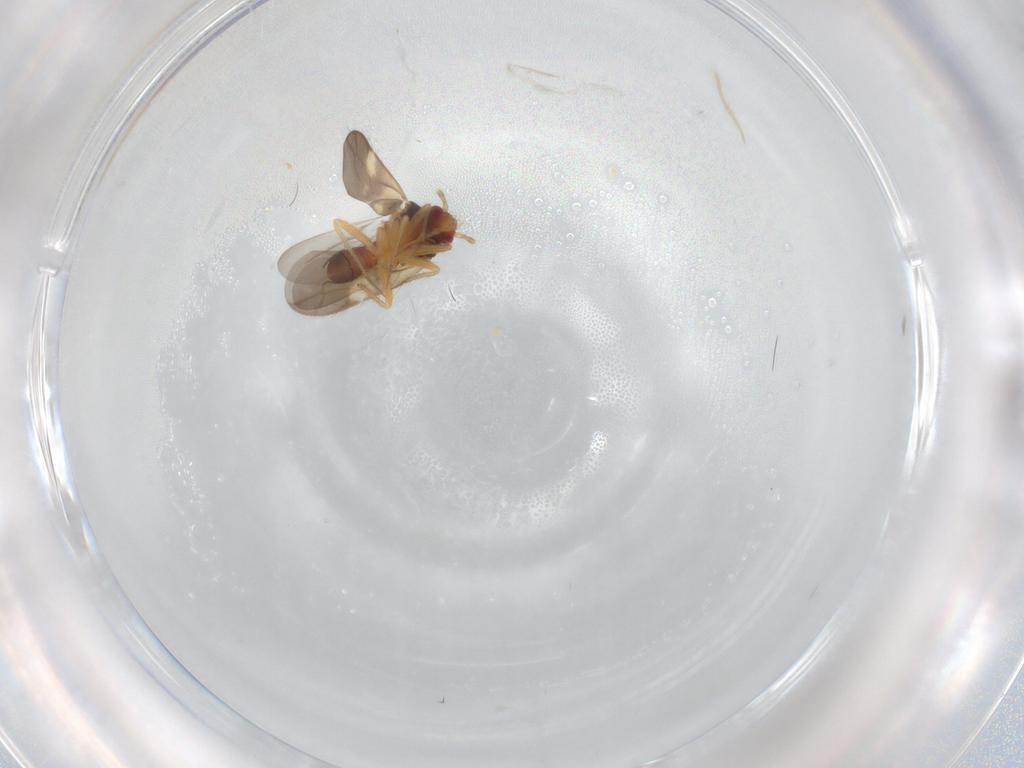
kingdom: Animalia
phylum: Arthropoda
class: Insecta
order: Hemiptera
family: Ceratocombidae
